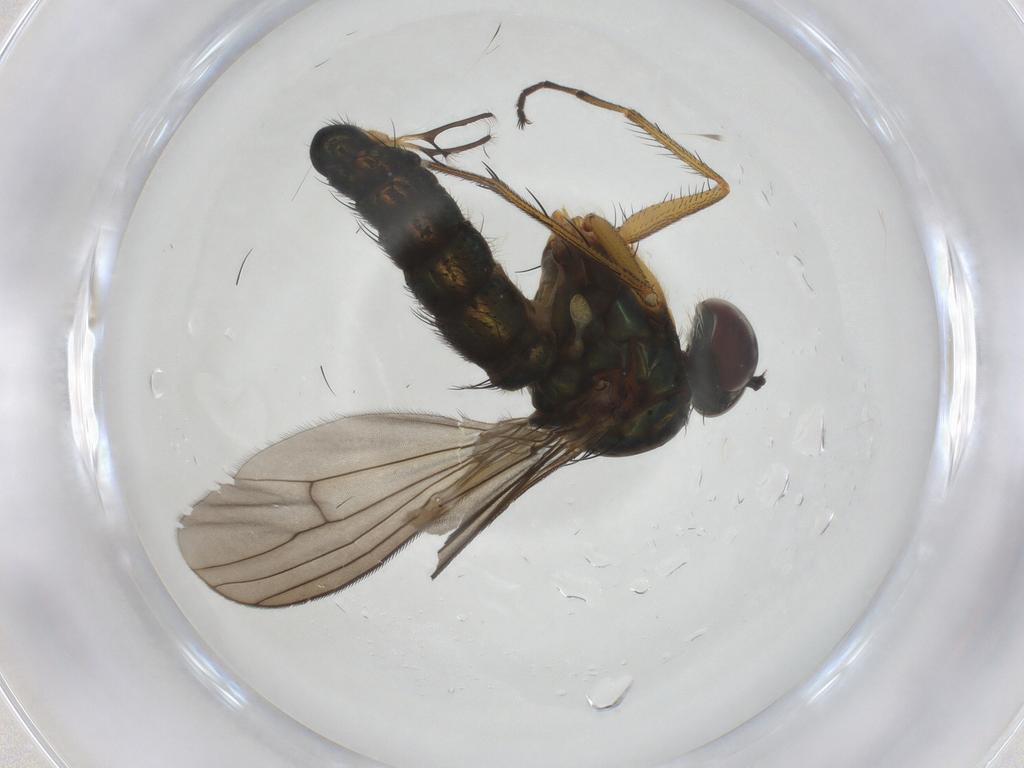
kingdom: Animalia
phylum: Arthropoda
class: Insecta
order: Diptera
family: Dolichopodidae
